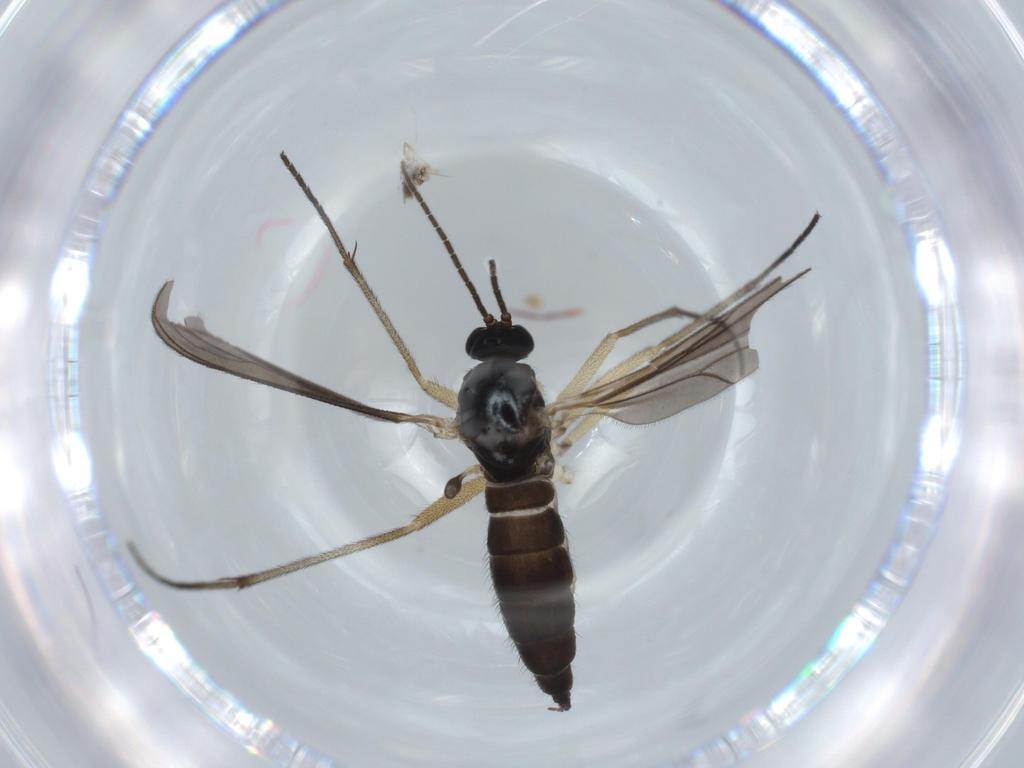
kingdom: Animalia
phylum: Arthropoda
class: Insecta
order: Diptera
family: Sciaridae
